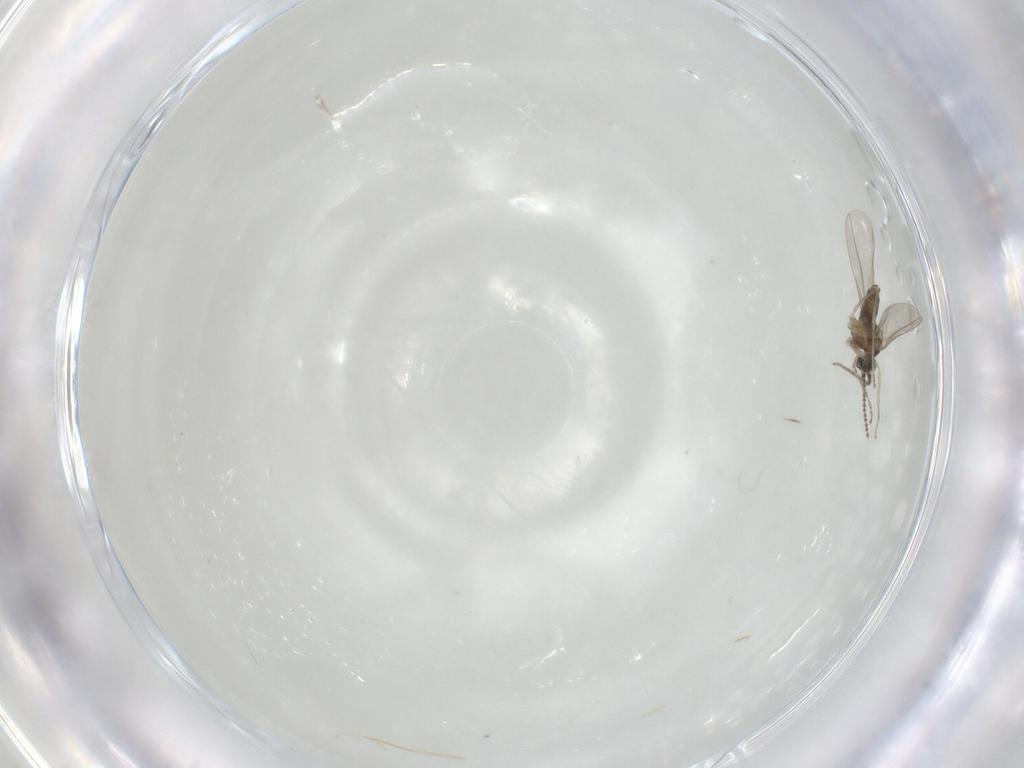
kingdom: Animalia
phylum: Arthropoda
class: Insecta
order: Diptera
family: Cecidomyiidae
